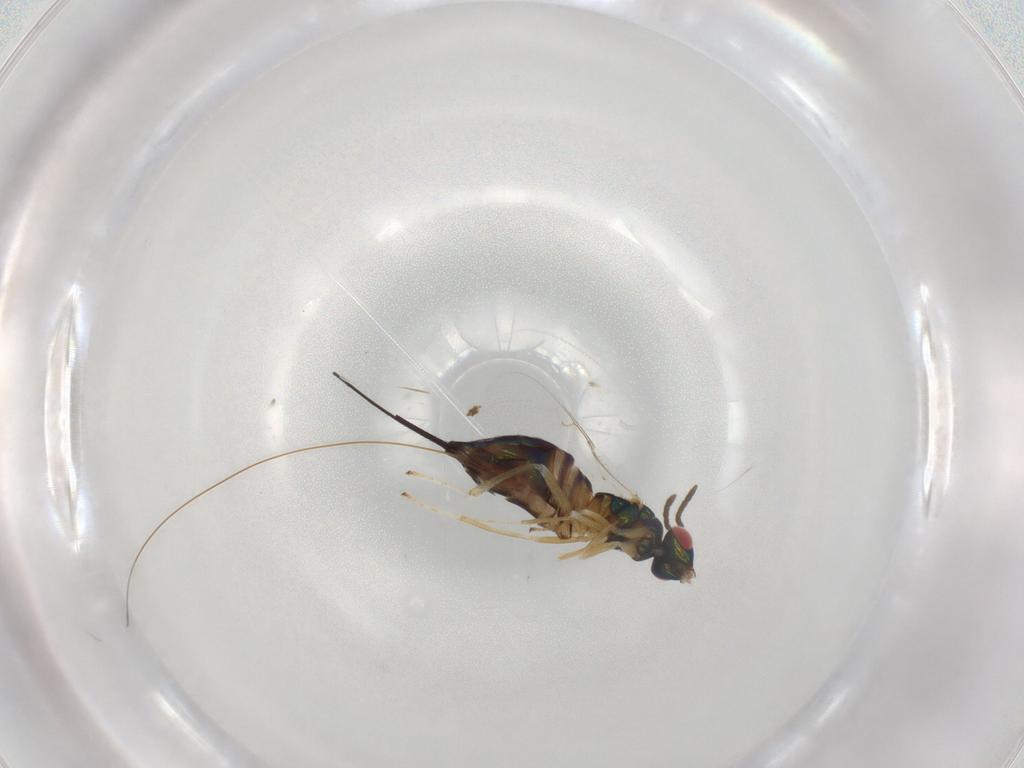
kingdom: Animalia
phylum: Arthropoda
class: Insecta
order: Hymenoptera
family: Pteromalidae
